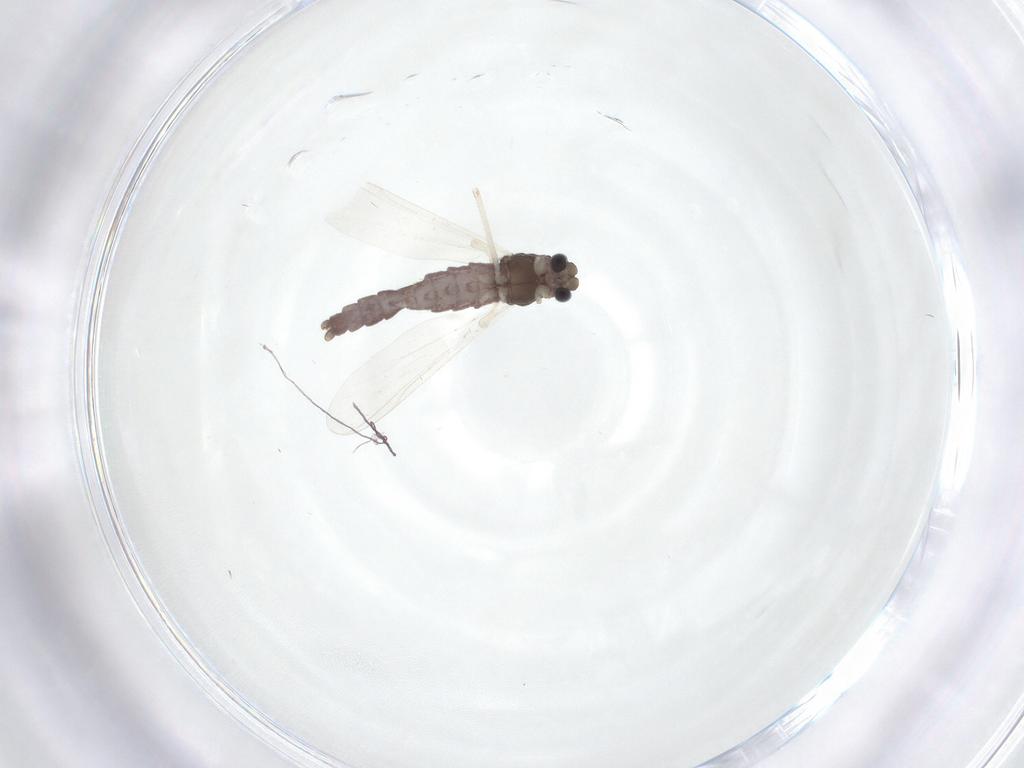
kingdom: Animalia
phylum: Arthropoda
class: Insecta
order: Diptera
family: Chironomidae
